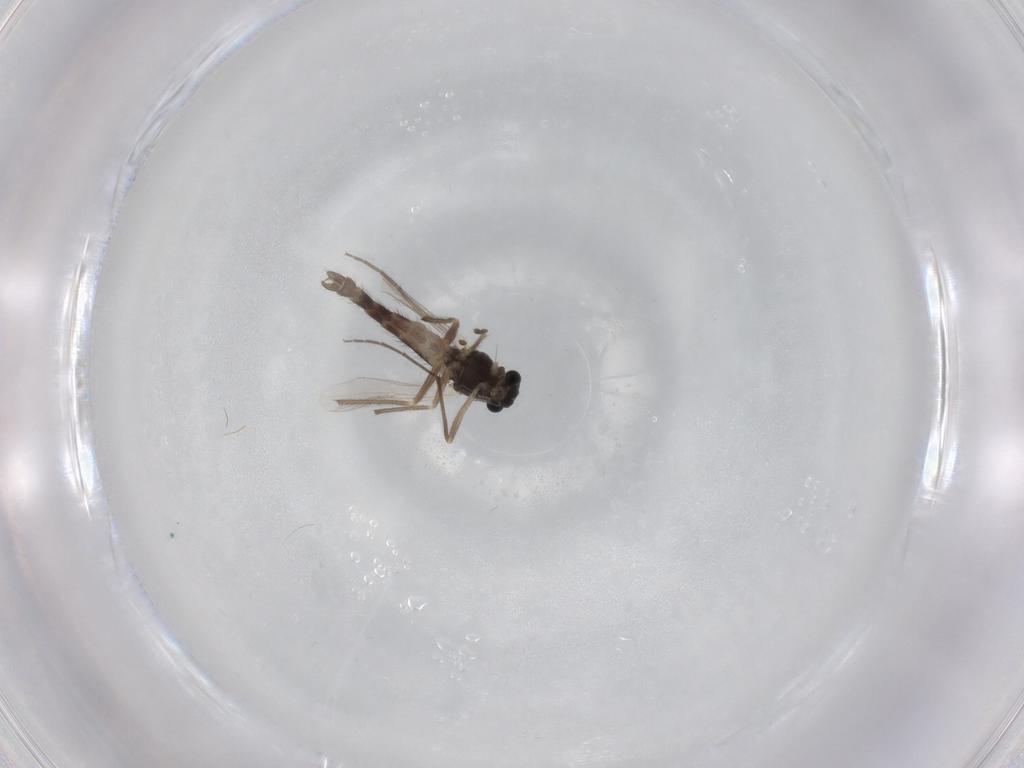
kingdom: Animalia
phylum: Arthropoda
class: Insecta
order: Diptera
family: Chironomidae
